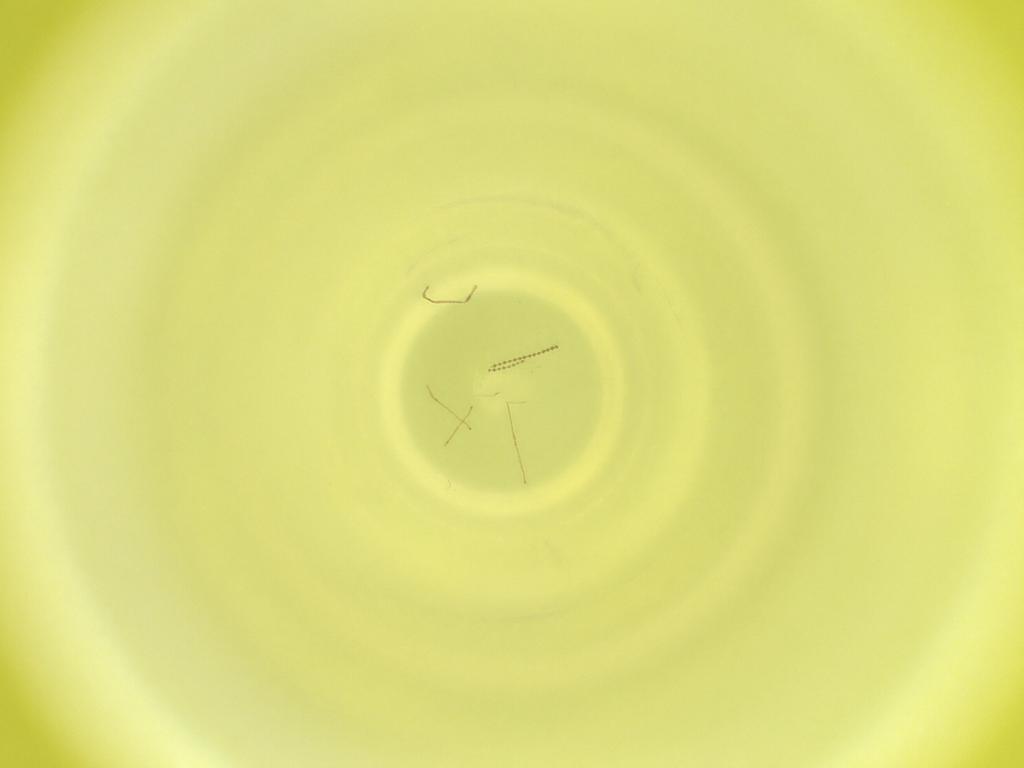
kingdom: Animalia
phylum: Arthropoda
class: Insecta
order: Diptera
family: Cecidomyiidae
